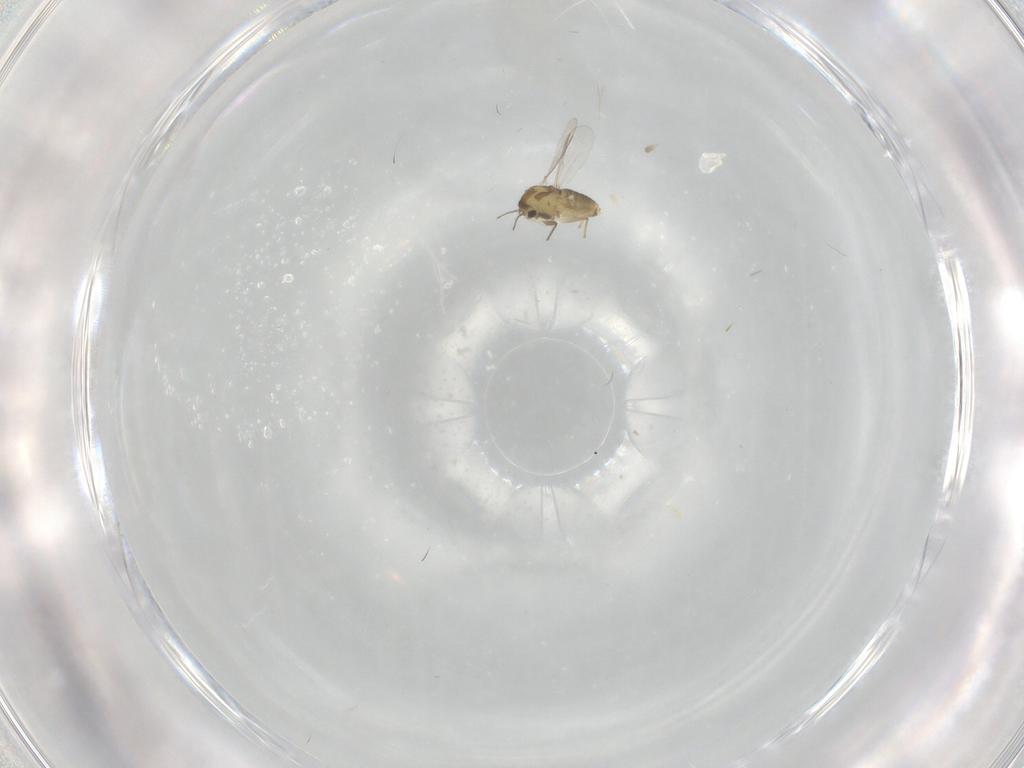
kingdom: Animalia
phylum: Arthropoda
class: Insecta
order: Diptera
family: Chironomidae
